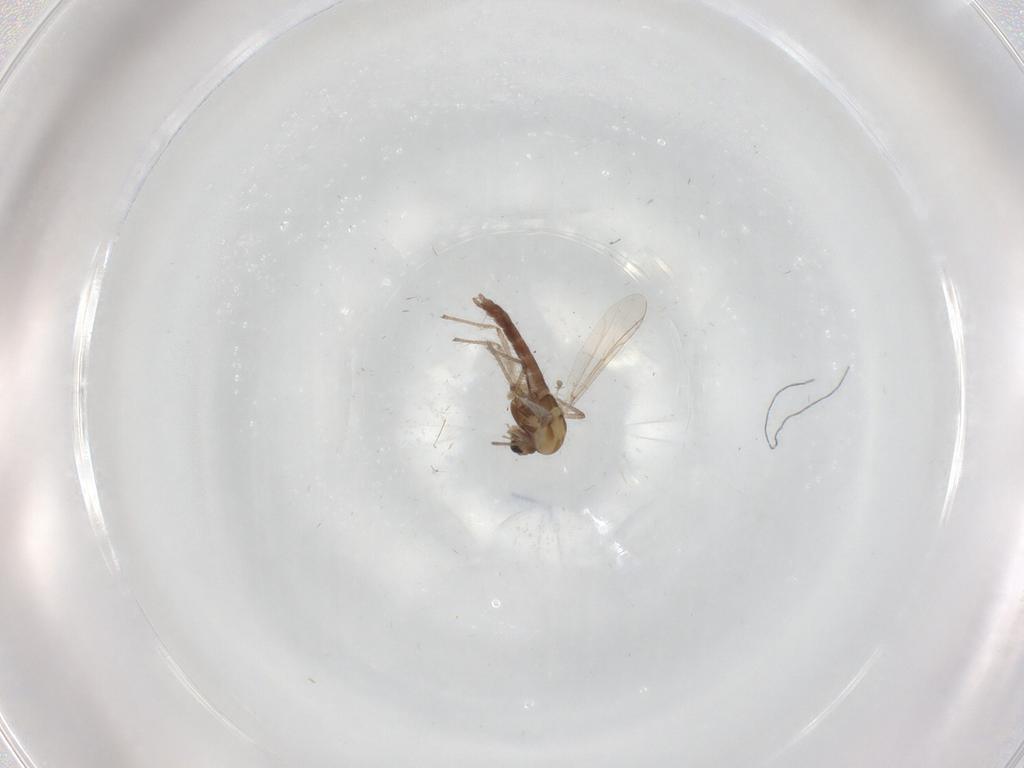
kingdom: Animalia
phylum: Arthropoda
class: Insecta
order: Diptera
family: Chironomidae
